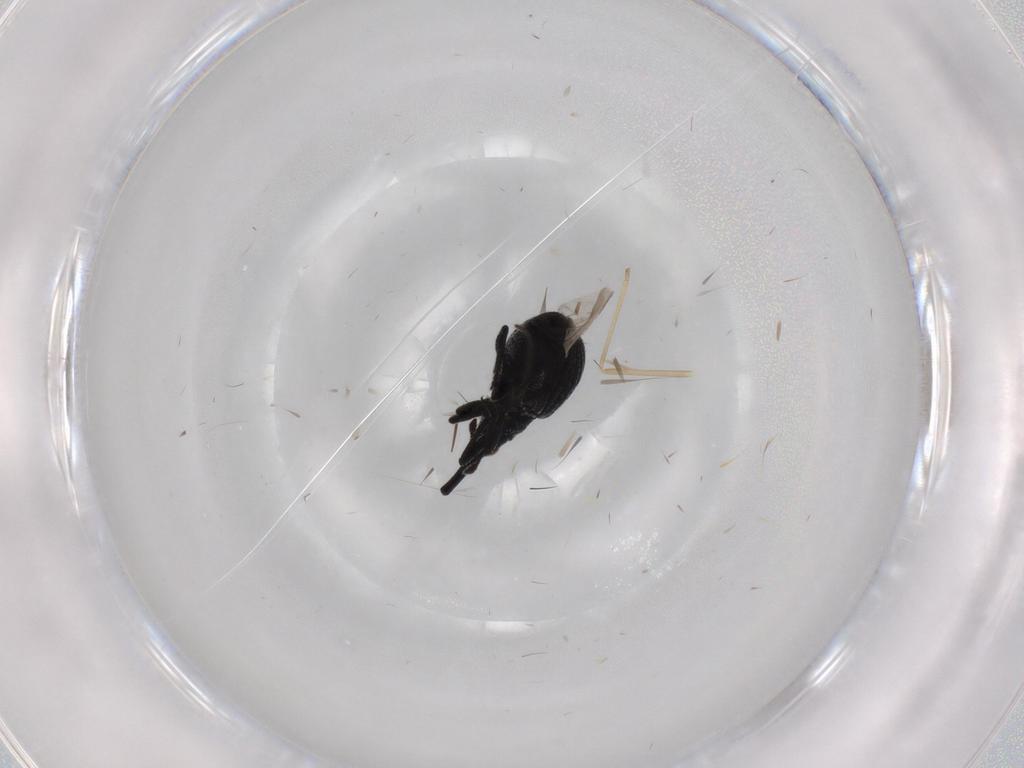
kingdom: Animalia
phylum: Arthropoda
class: Insecta
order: Coleoptera
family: Brentidae
